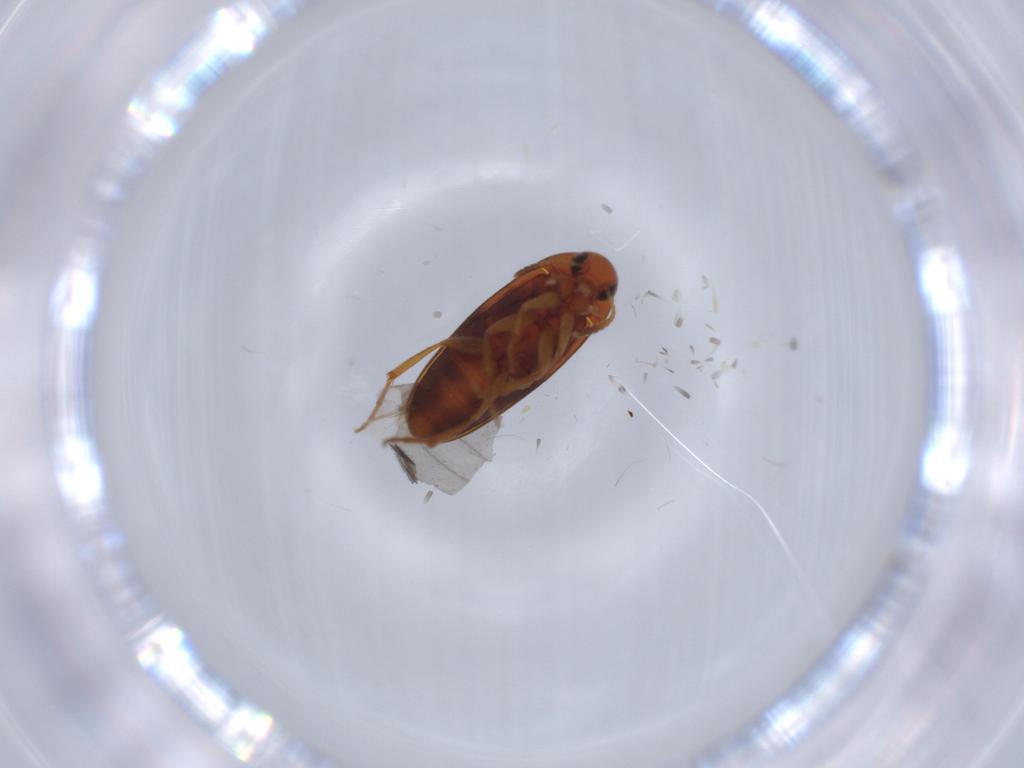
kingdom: Animalia
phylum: Arthropoda
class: Insecta
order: Coleoptera
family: Scraptiidae
